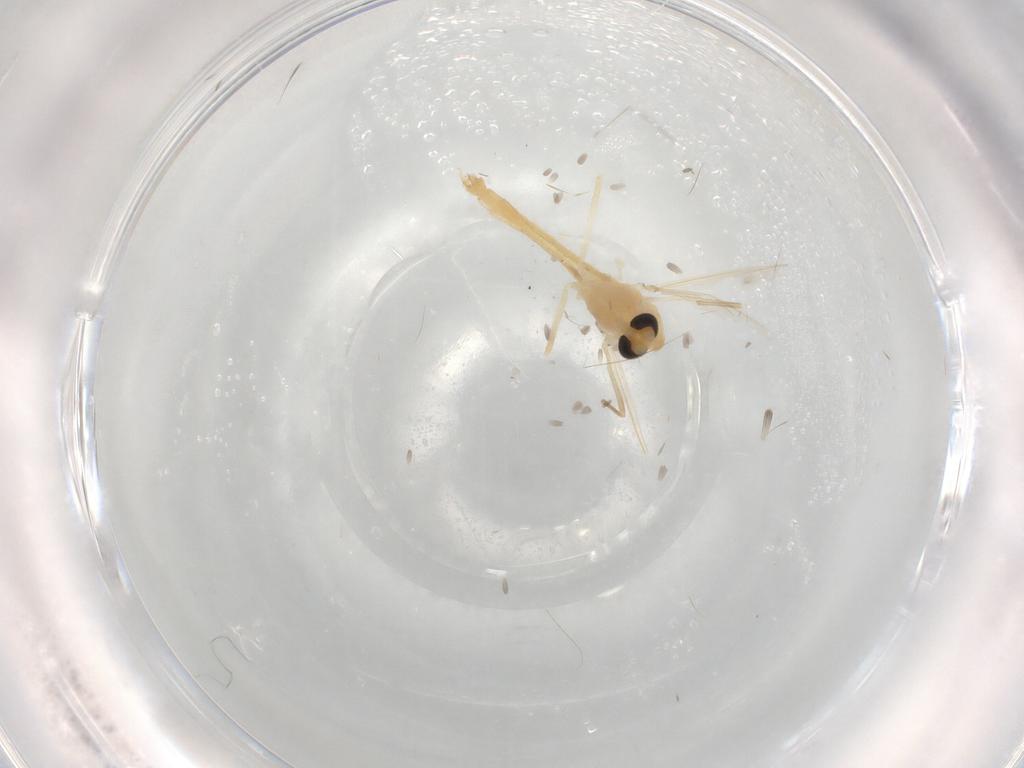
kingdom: Animalia
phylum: Arthropoda
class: Insecta
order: Diptera
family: Chironomidae
